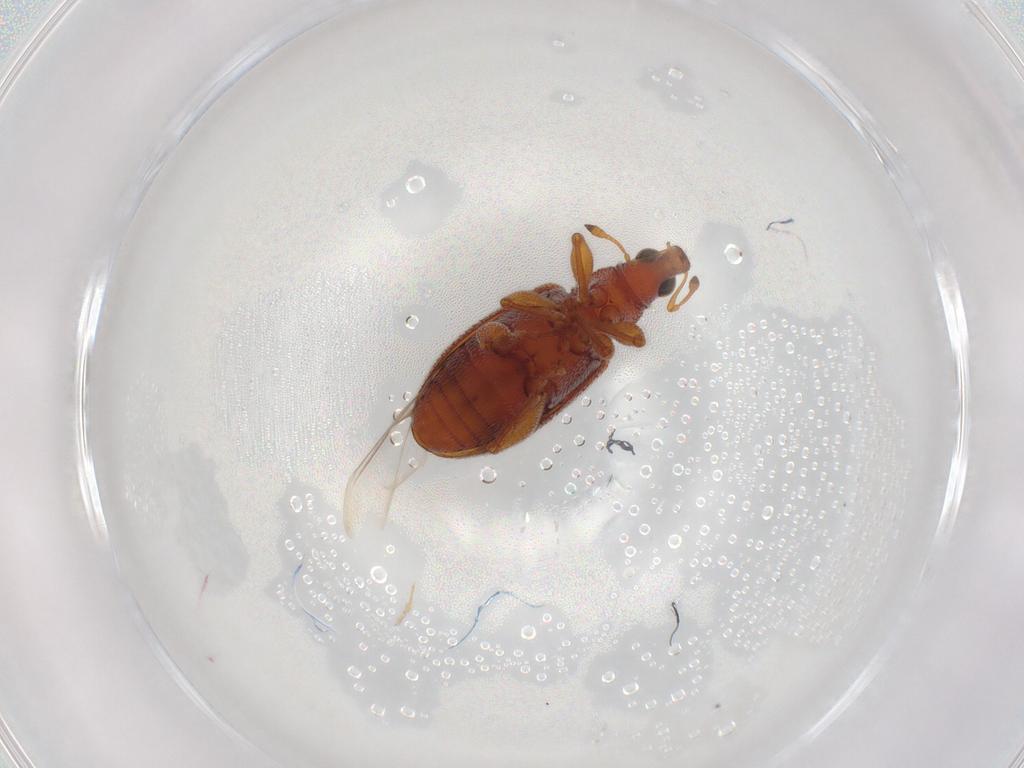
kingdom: Animalia
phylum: Arthropoda
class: Insecta
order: Coleoptera
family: Curculionidae
